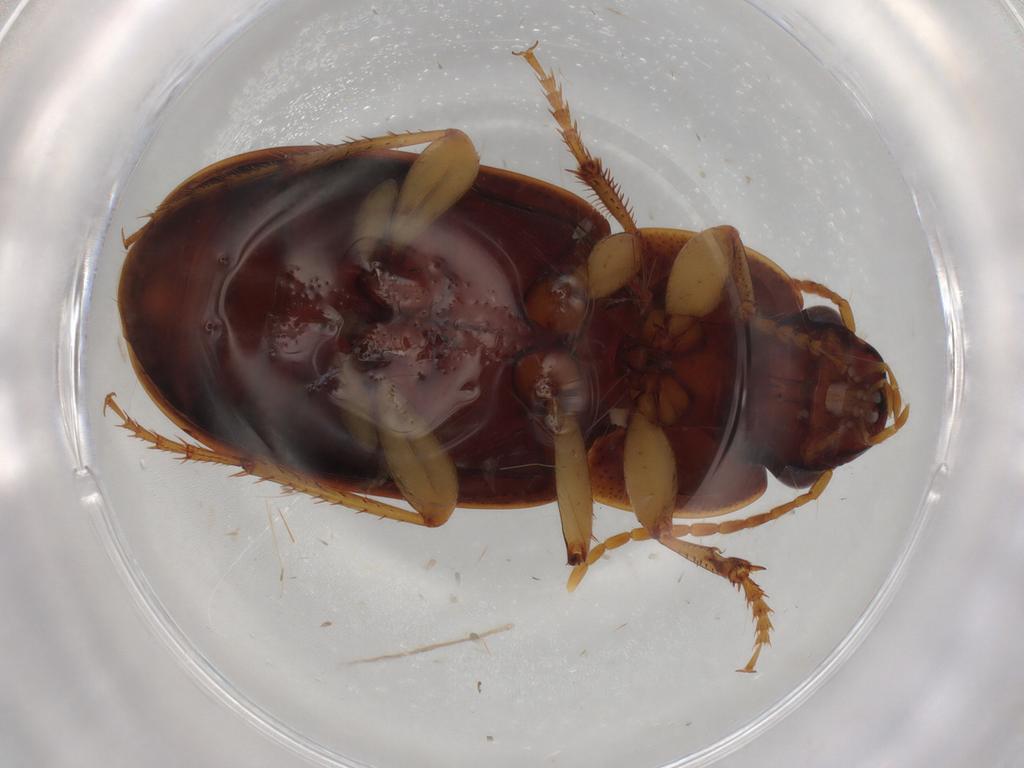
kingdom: Animalia
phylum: Arthropoda
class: Insecta
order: Coleoptera
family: Carabidae
